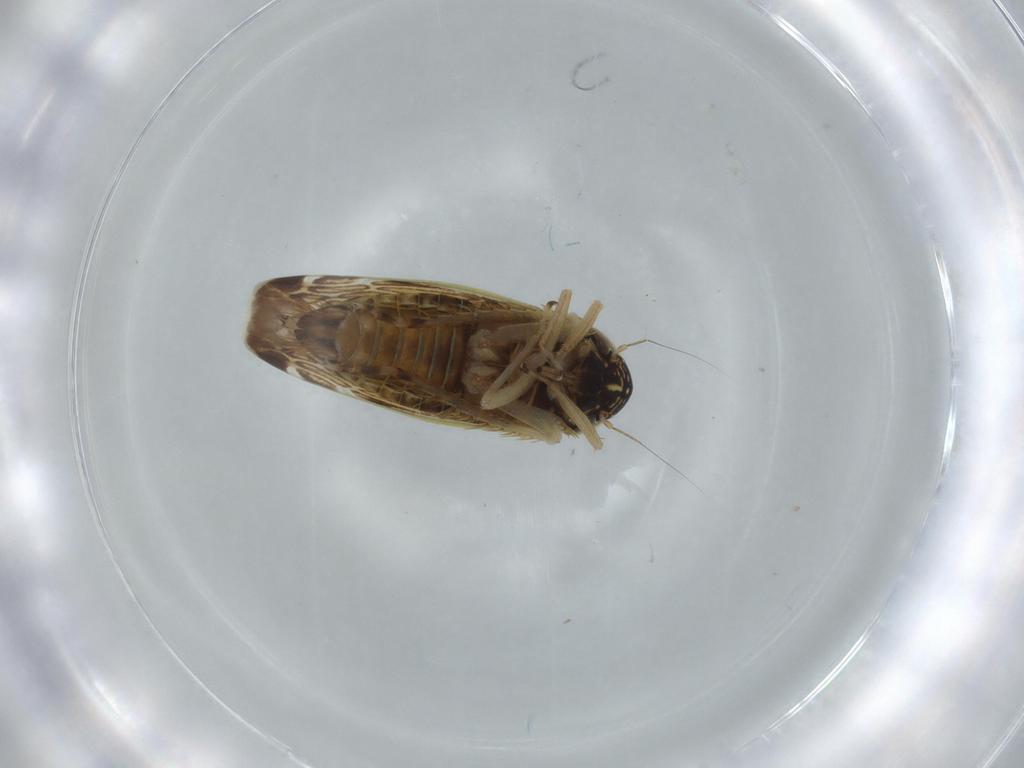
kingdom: Animalia
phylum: Arthropoda
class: Insecta
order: Hemiptera
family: Cicadellidae
